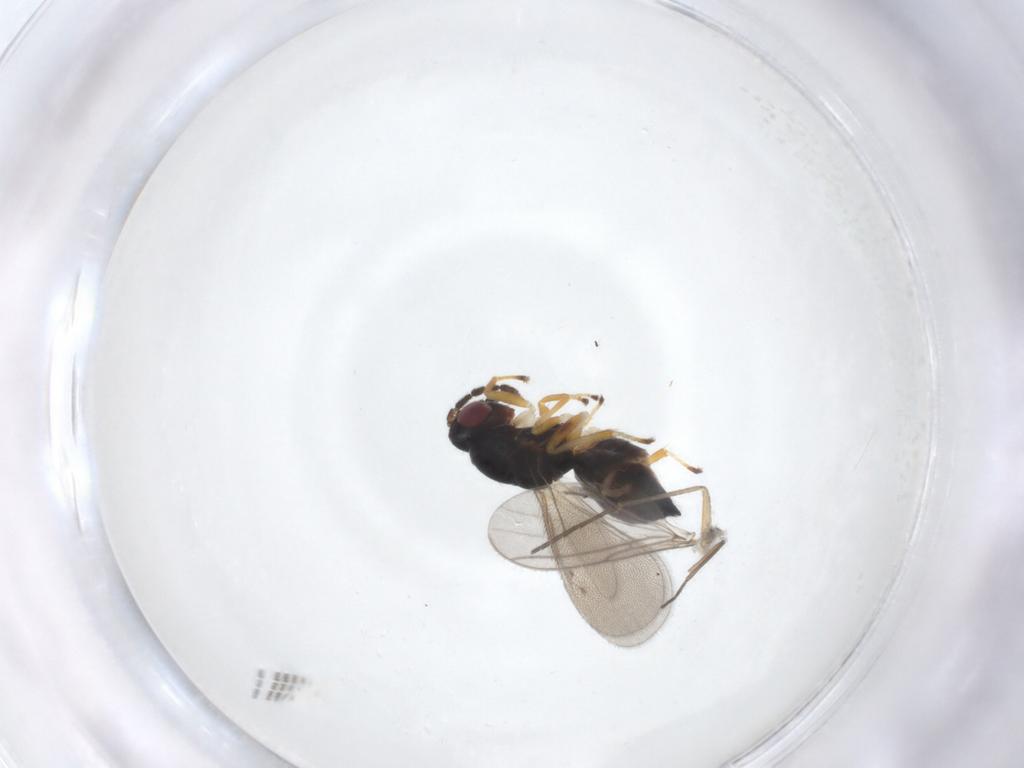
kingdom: Animalia
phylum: Arthropoda
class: Insecta
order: Hymenoptera
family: Eulophidae
